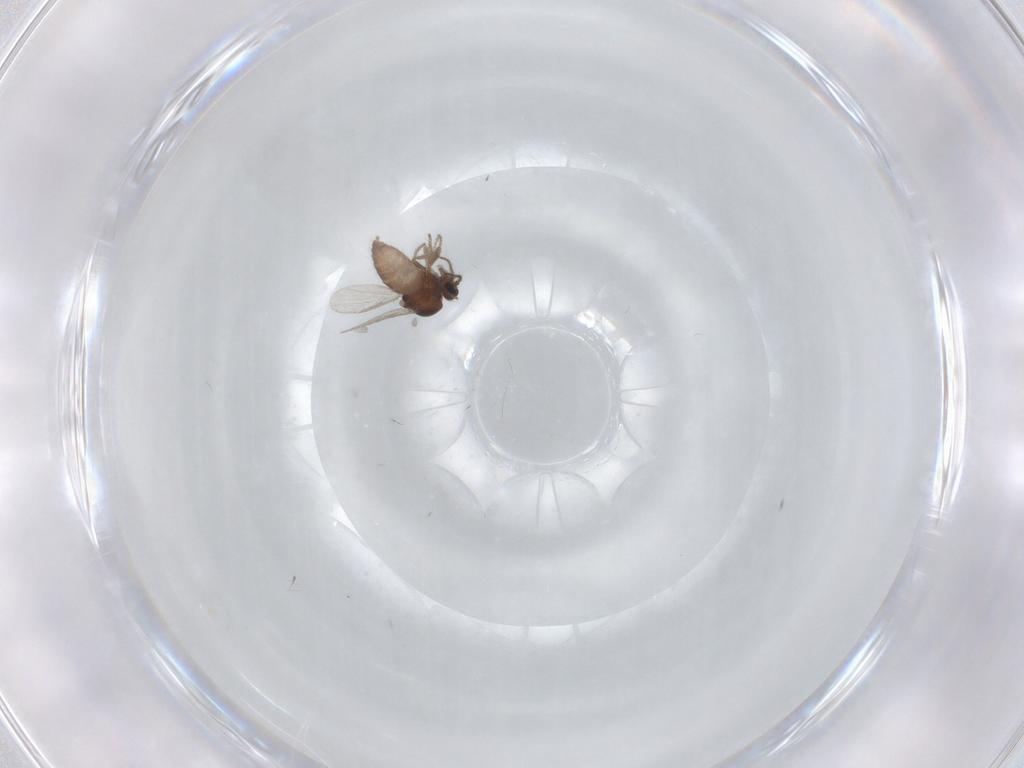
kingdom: Animalia
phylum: Arthropoda
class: Insecta
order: Diptera
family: Ceratopogonidae
